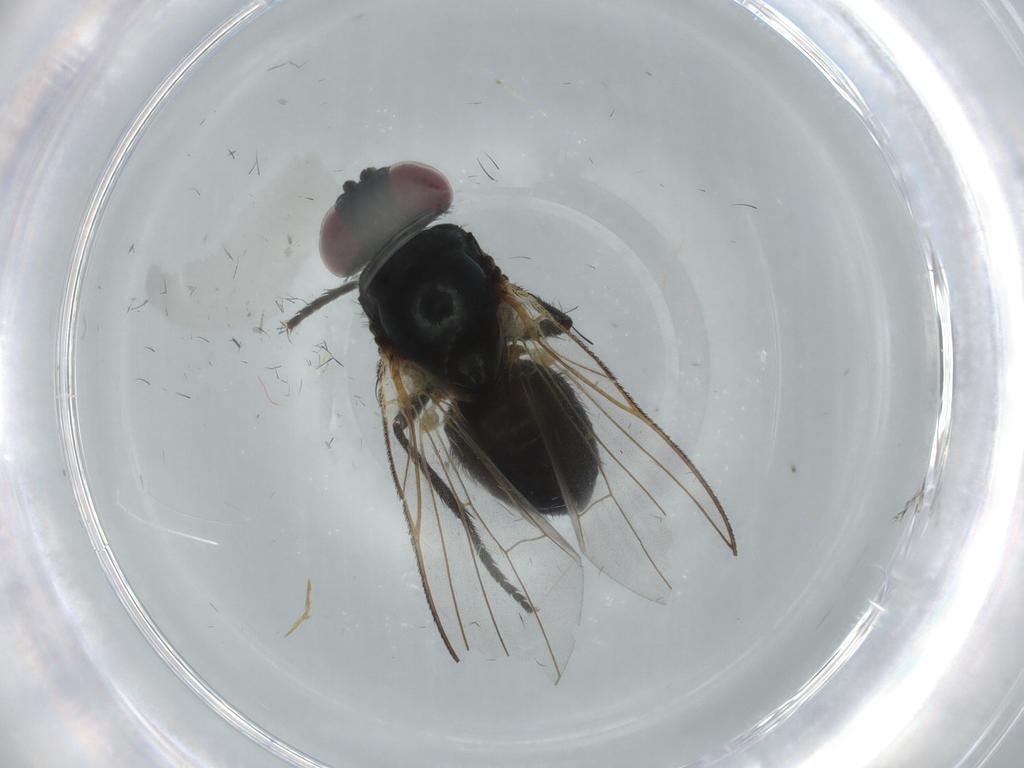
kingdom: Animalia
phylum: Arthropoda
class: Insecta
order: Diptera
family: Fannia
